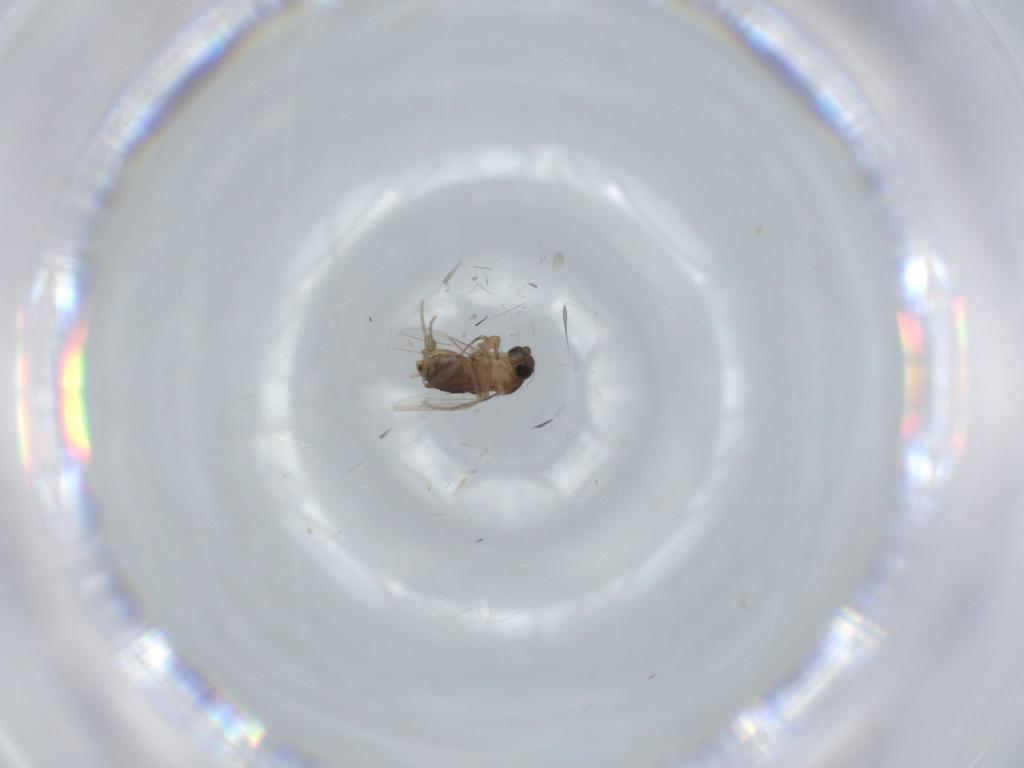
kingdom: Animalia
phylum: Arthropoda
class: Insecta
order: Diptera
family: Phoridae
